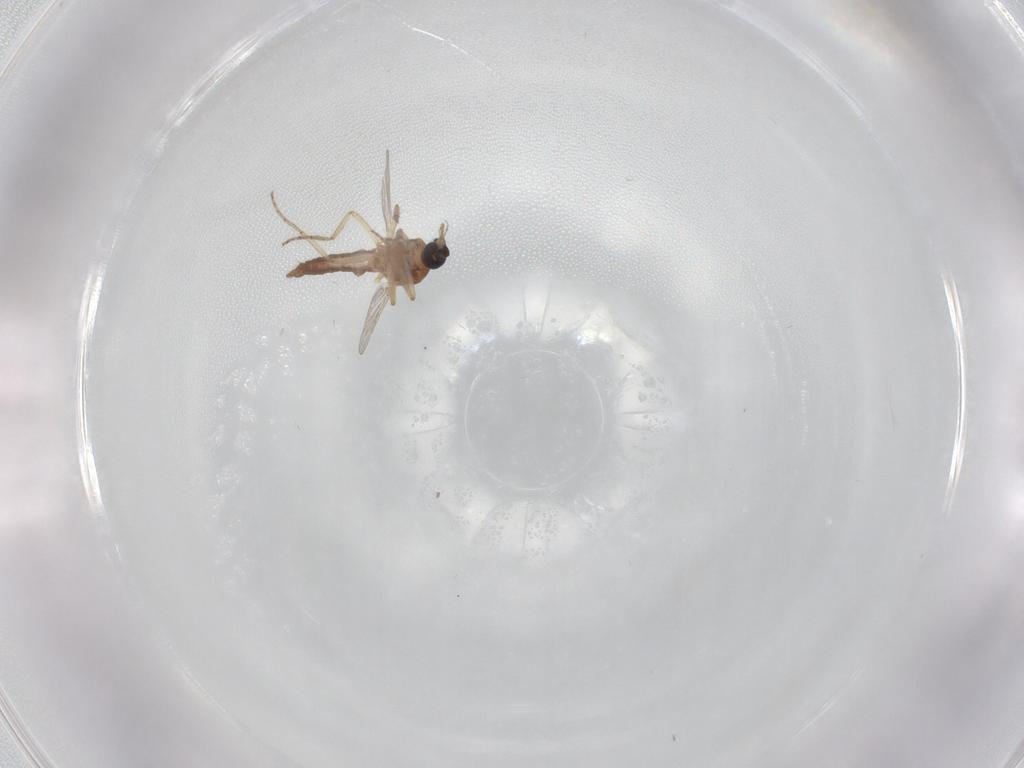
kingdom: Animalia
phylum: Arthropoda
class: Insecta
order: Diptera
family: Ceratopogonidae
